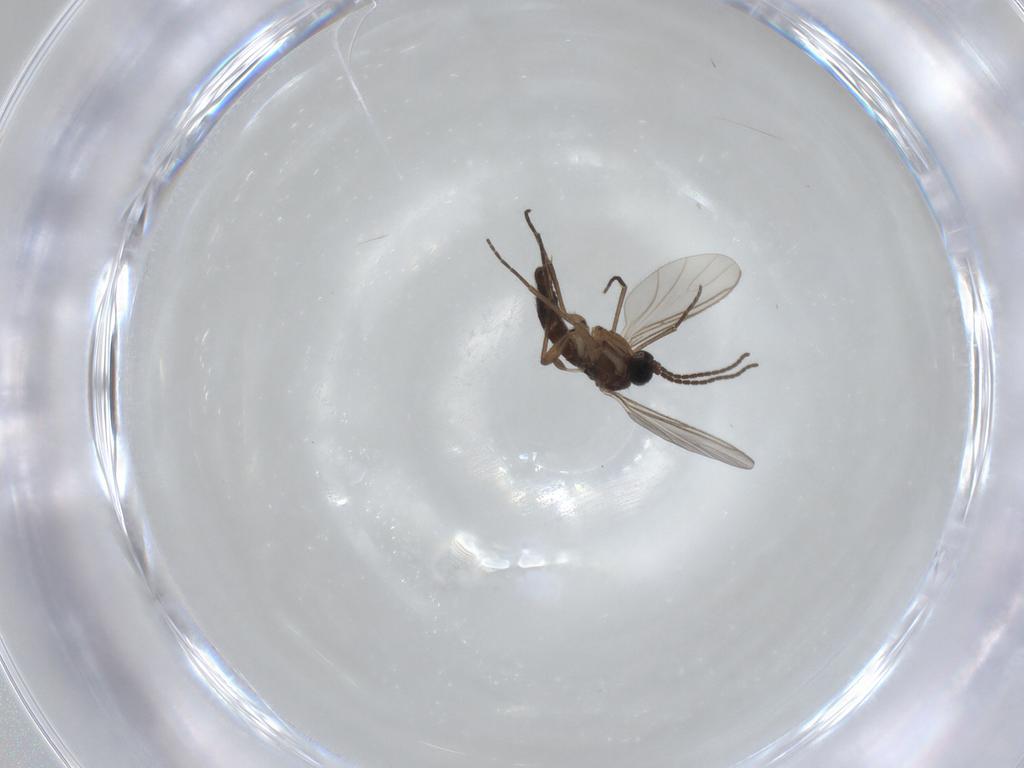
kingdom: Animalia
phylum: Arthropoda
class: Insecta
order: Diptera
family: Sciaridae
